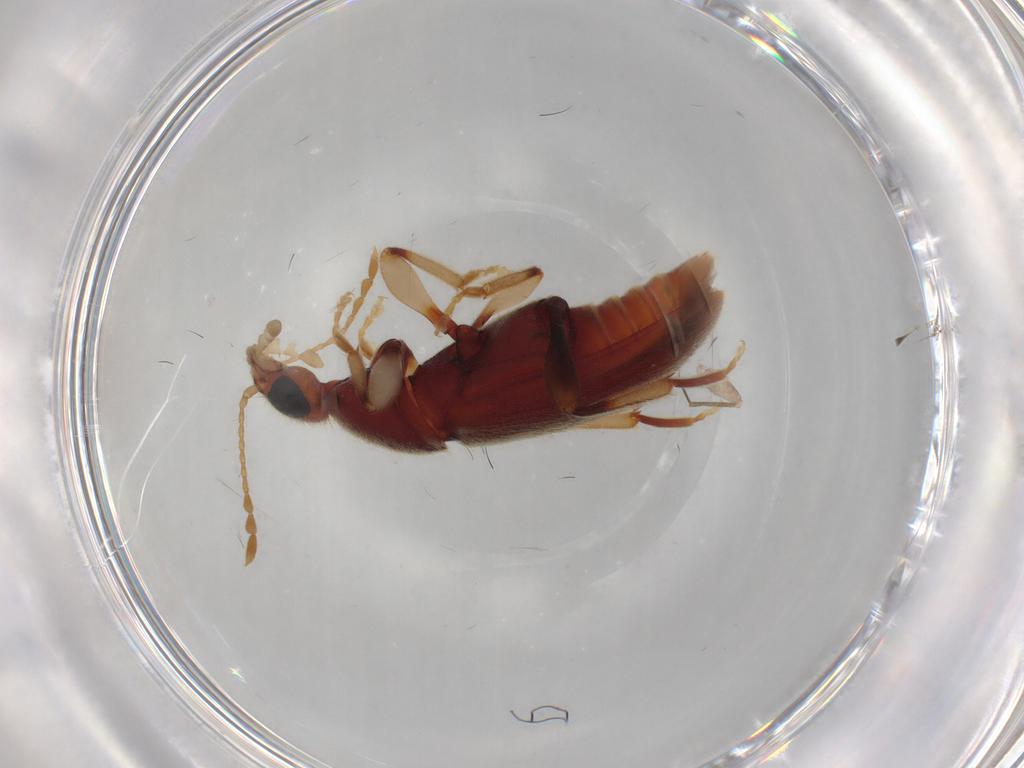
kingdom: Animalia
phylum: Arthropoda
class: Insecta
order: Coleoptera
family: Anthicidae
